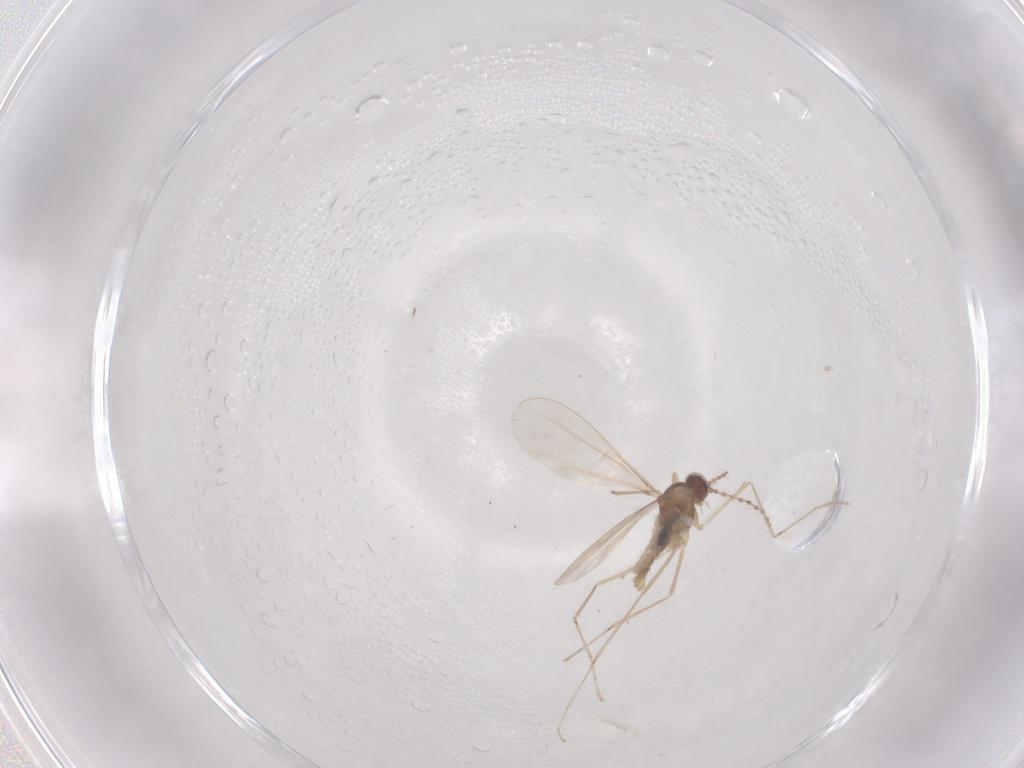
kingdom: Animalia
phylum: Arthropoda
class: Insecta
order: Diptera
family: Cecidomyiidae
